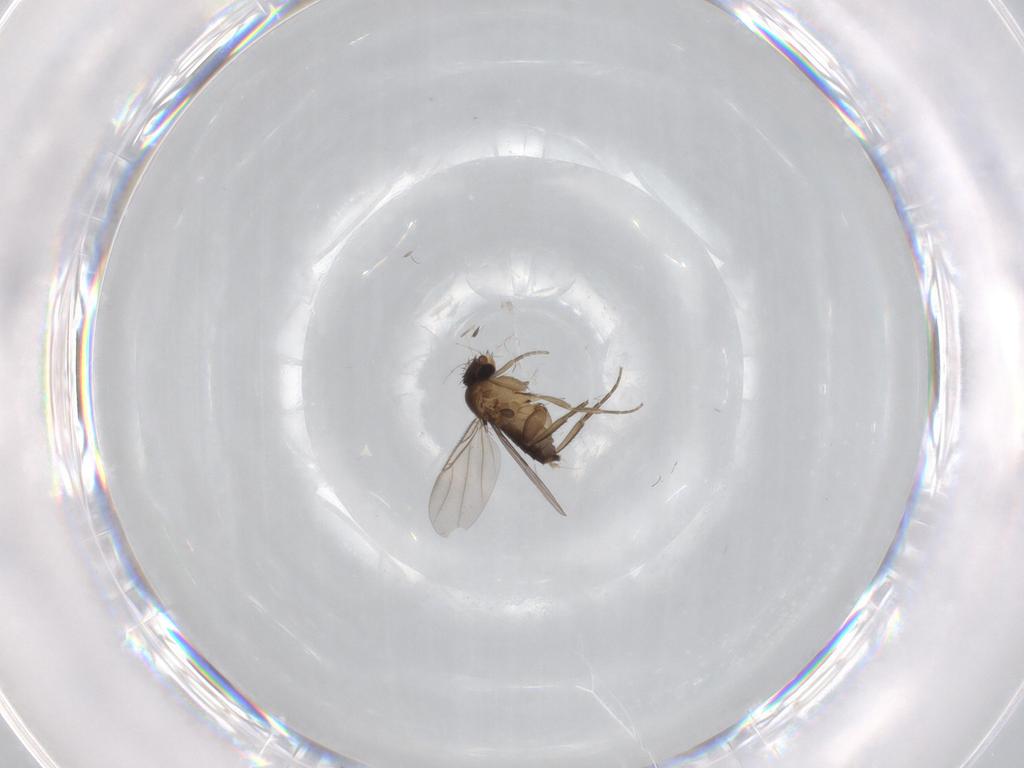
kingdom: Animalia
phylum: Arthropoda
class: Insecta
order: Diptera
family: Phoridae
